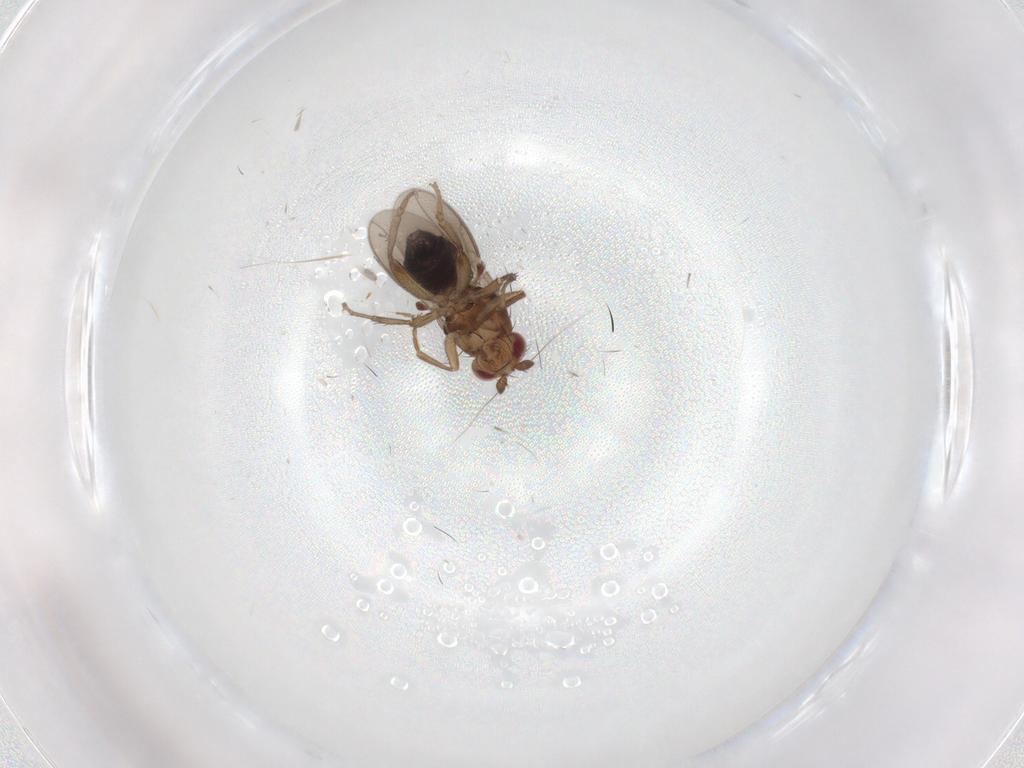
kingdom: Animalia
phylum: Arthropoda
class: Insecta
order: Diptera
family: Sphaeroceridae
